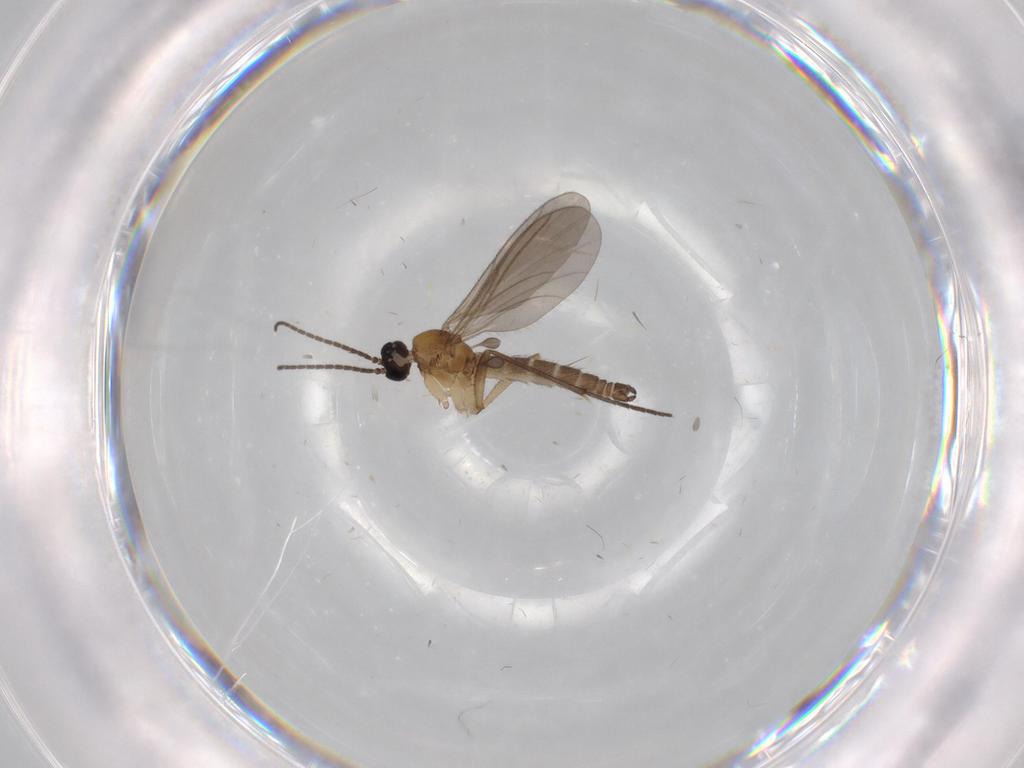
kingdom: Animalia
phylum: Arthropoda
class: Insecta
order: Diptera
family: Sciaridae
